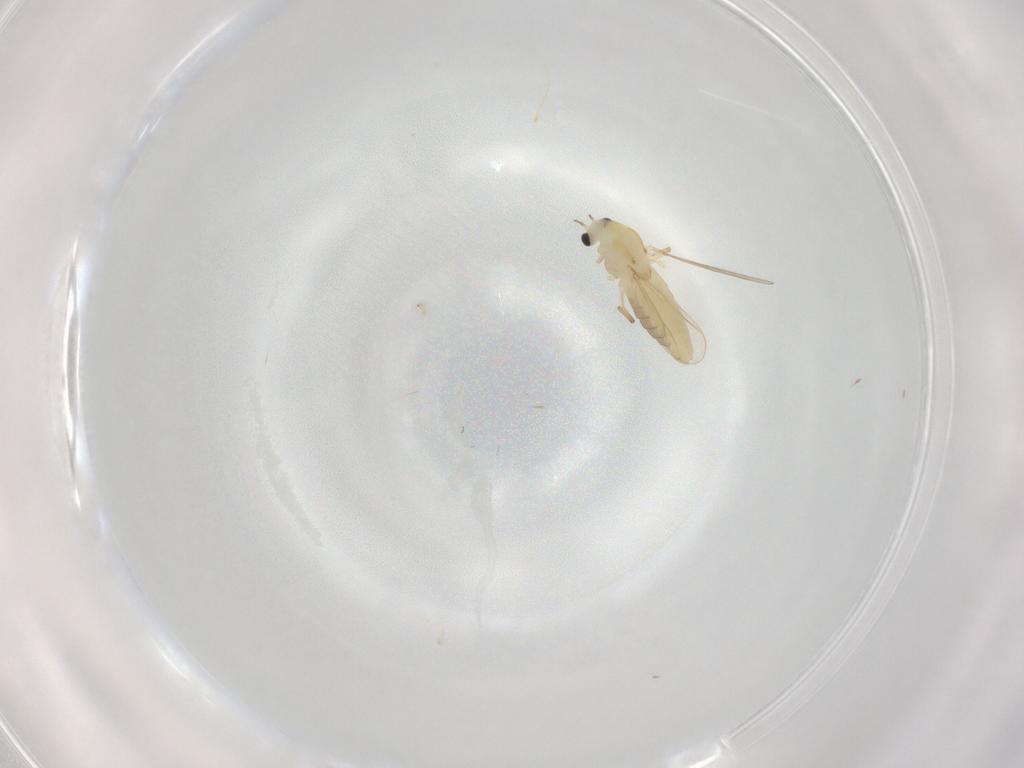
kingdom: Animalia
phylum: Arthropoda
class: Insecta
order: Diptera
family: Chironomidae
